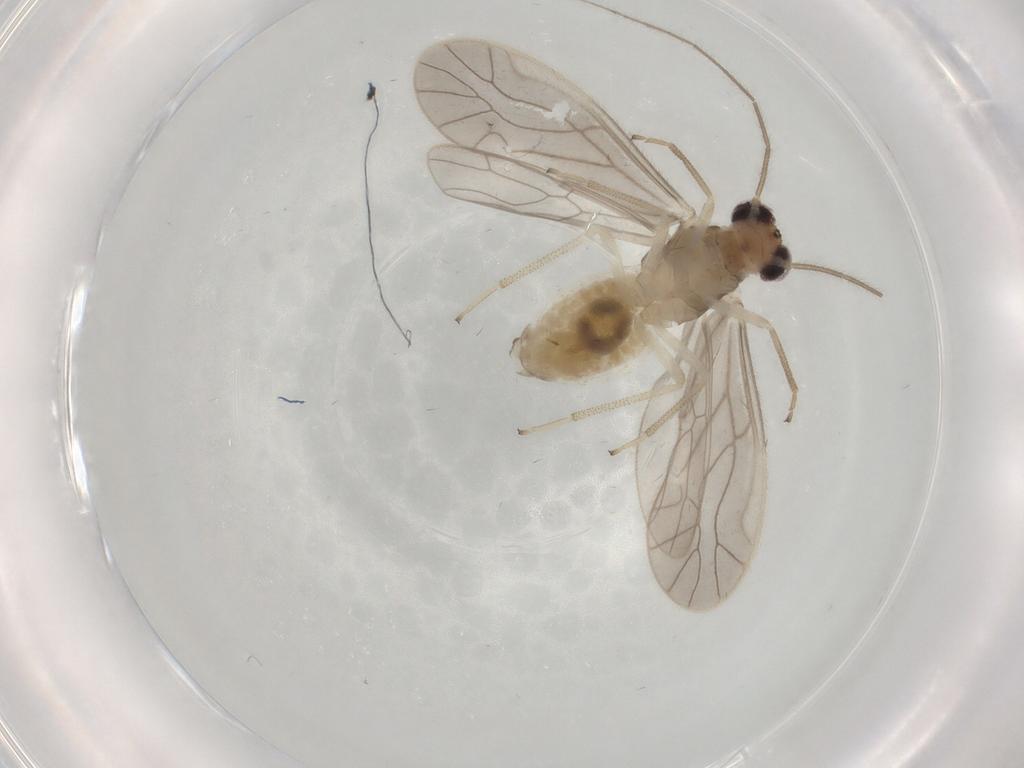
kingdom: Animalia
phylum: Arthropoda
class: Insecta
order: Psocodea
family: Caeciliusidae
